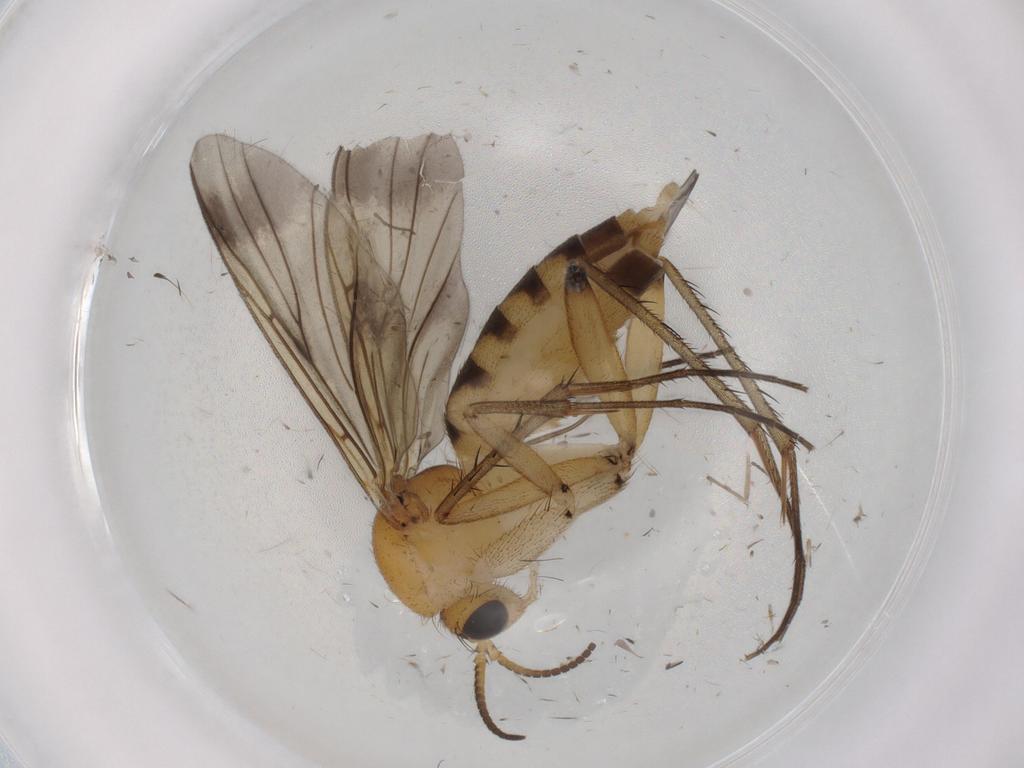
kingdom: Animalia
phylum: Arthropoda
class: Insecta
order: Diptera
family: Mycetophilidae
